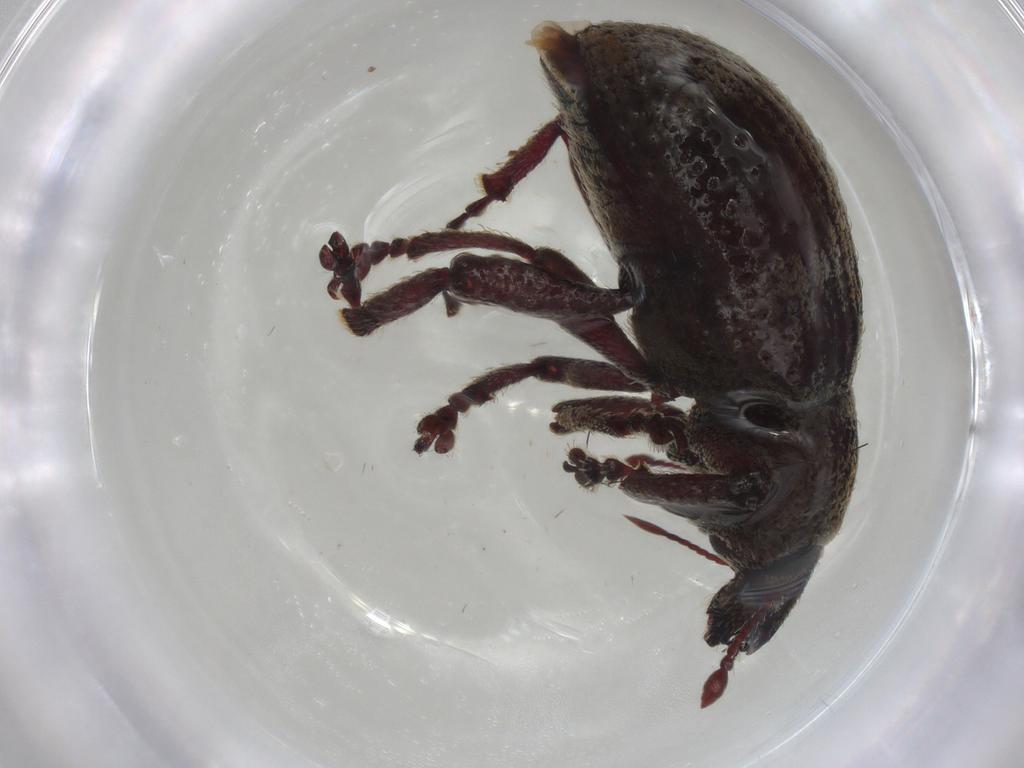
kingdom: Animalia
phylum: Arthropoda
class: Insecta
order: Coleoptera
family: Curculionidae
